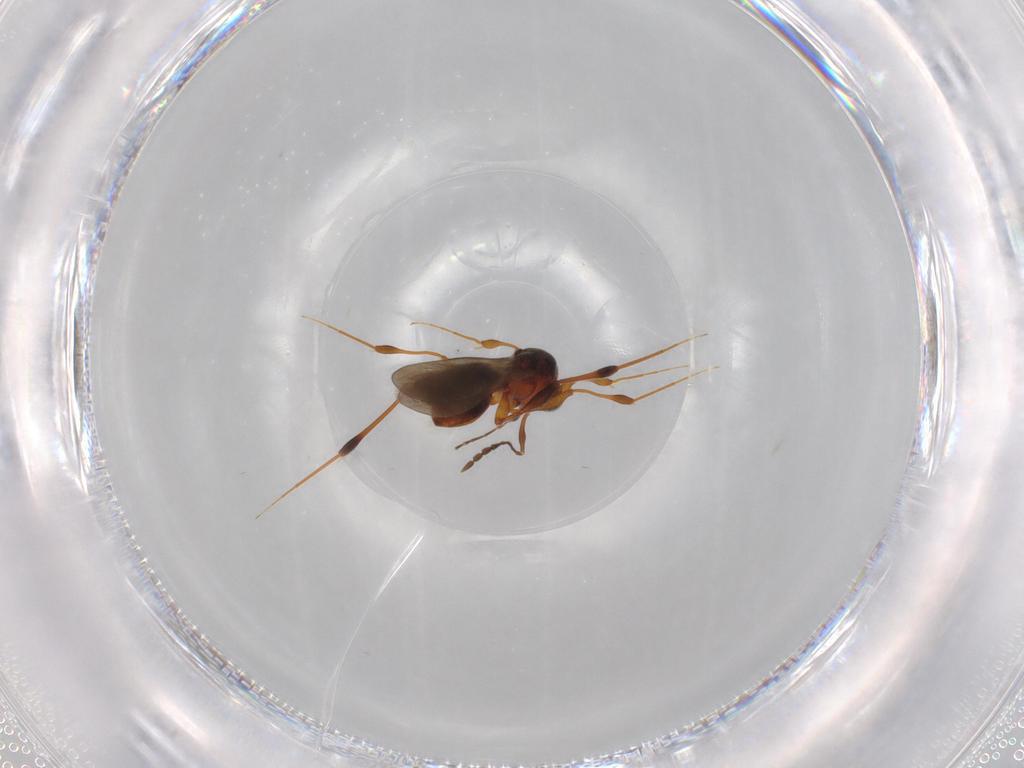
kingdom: Animalia
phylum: Arthropoda
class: Insecta
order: Hymenoptera
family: Platygastridae
